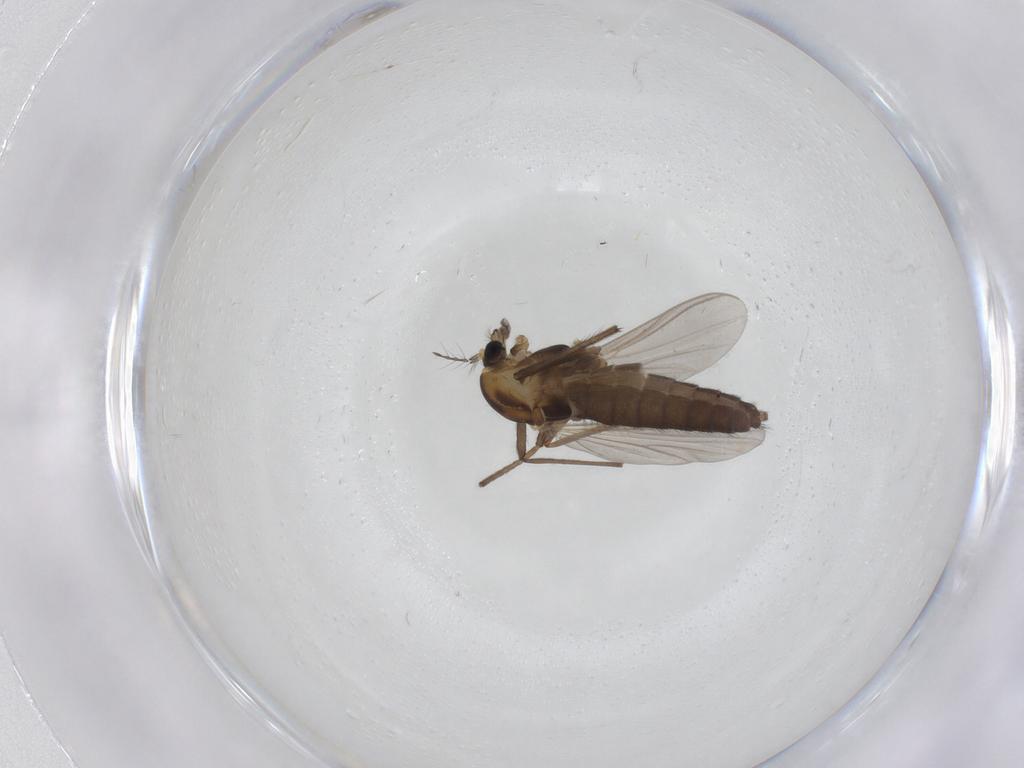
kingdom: Animalia
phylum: Arthropoda
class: Insecta
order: Diptera
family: Chironomidae
